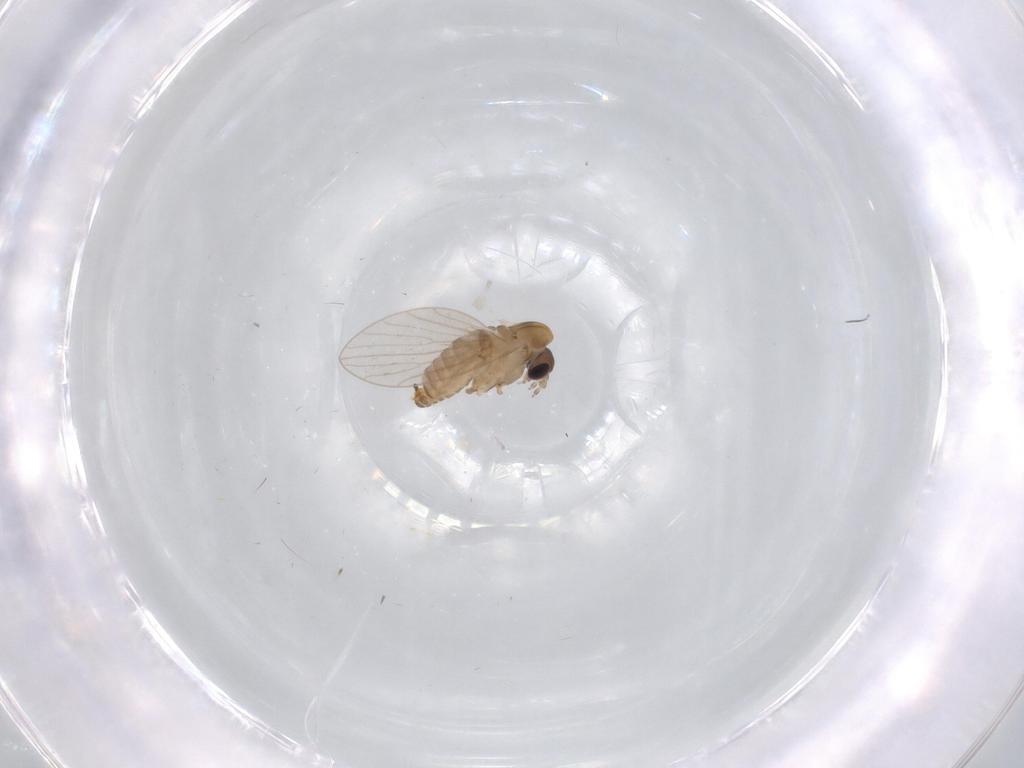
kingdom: Animalia
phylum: Arthropoda
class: Insecta
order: Diptera
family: Psychodidae
